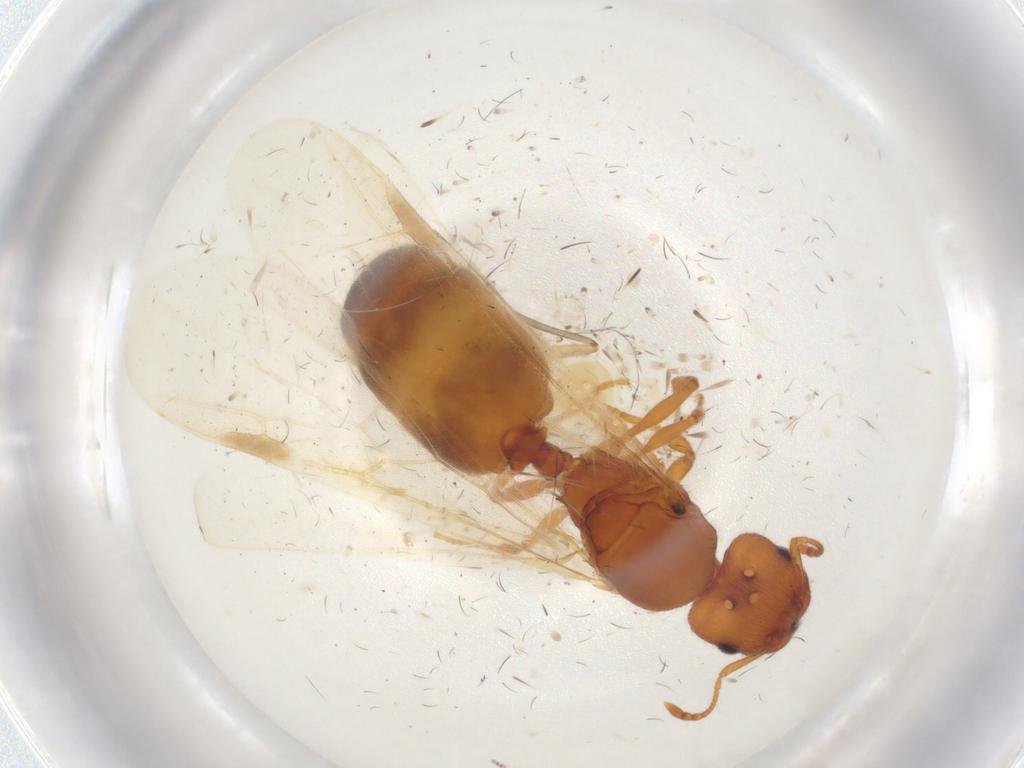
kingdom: Animalia
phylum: Arthropoda
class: Insecta
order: Hymenoptera
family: Formicidae
